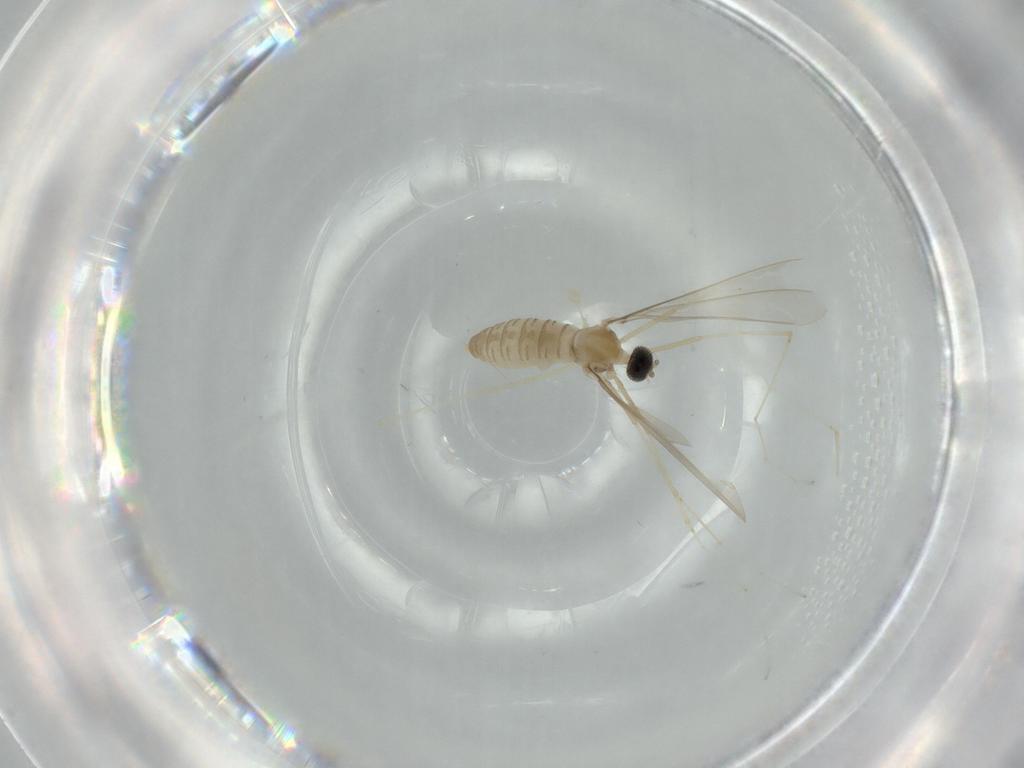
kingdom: Animalia
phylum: Arthropoda
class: Insecta
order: Diptera
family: Cecidomyiidae
